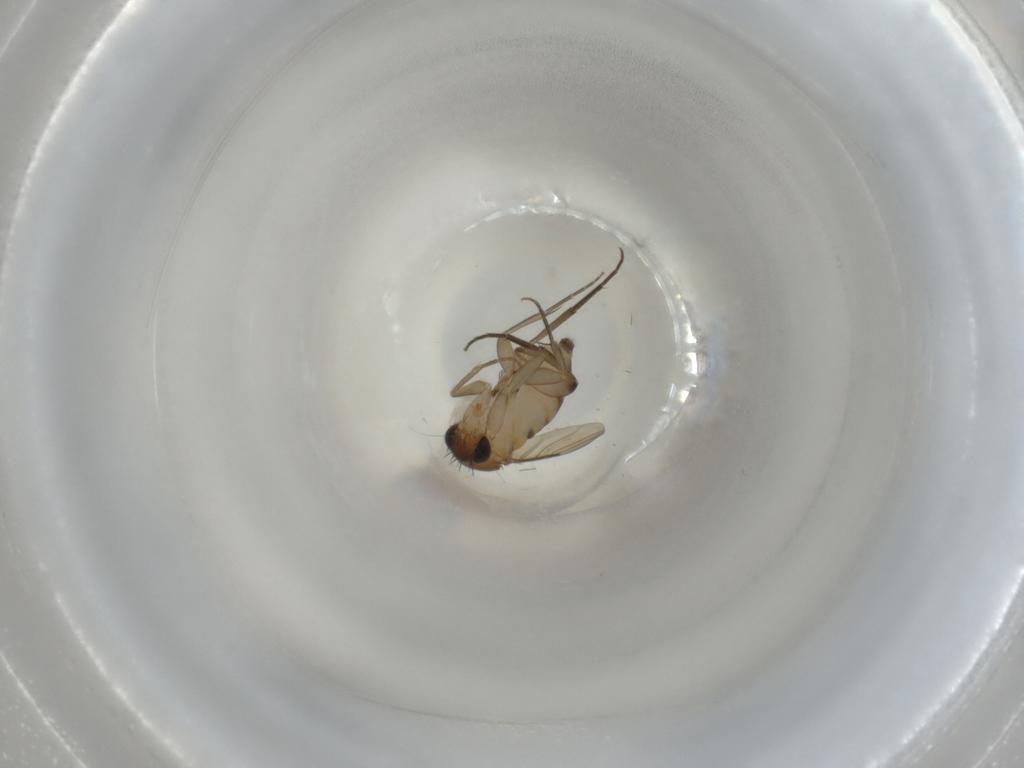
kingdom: Animalia
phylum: Arthropoda
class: Insecta
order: Diptera
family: Phoridae
